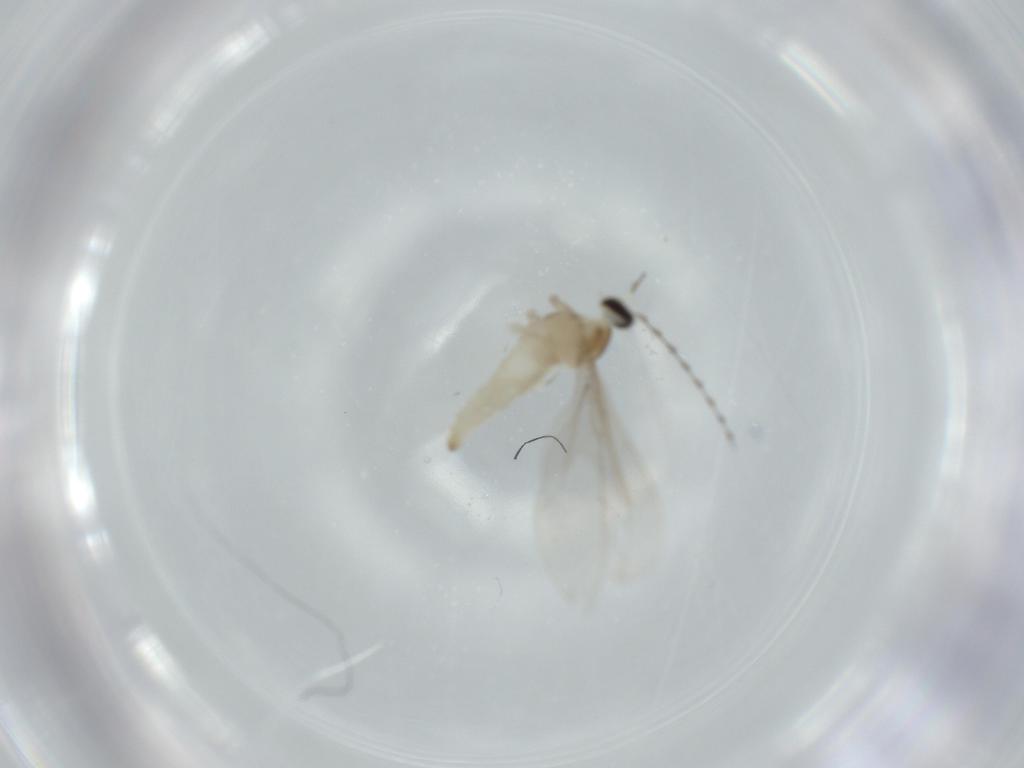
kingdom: Animalia
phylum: Arthropoda
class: Insecta
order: Diptera
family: Cecidomyiidae
